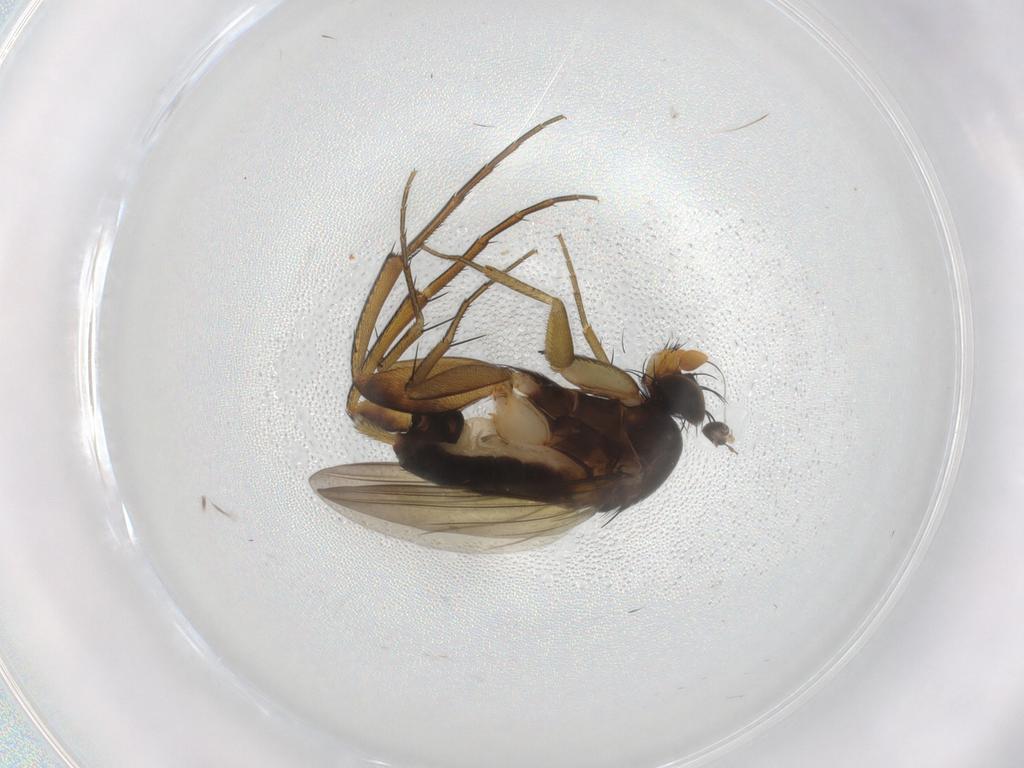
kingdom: Animalia
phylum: Arthropoda
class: Insecta
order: Diptera
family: Phoridae
